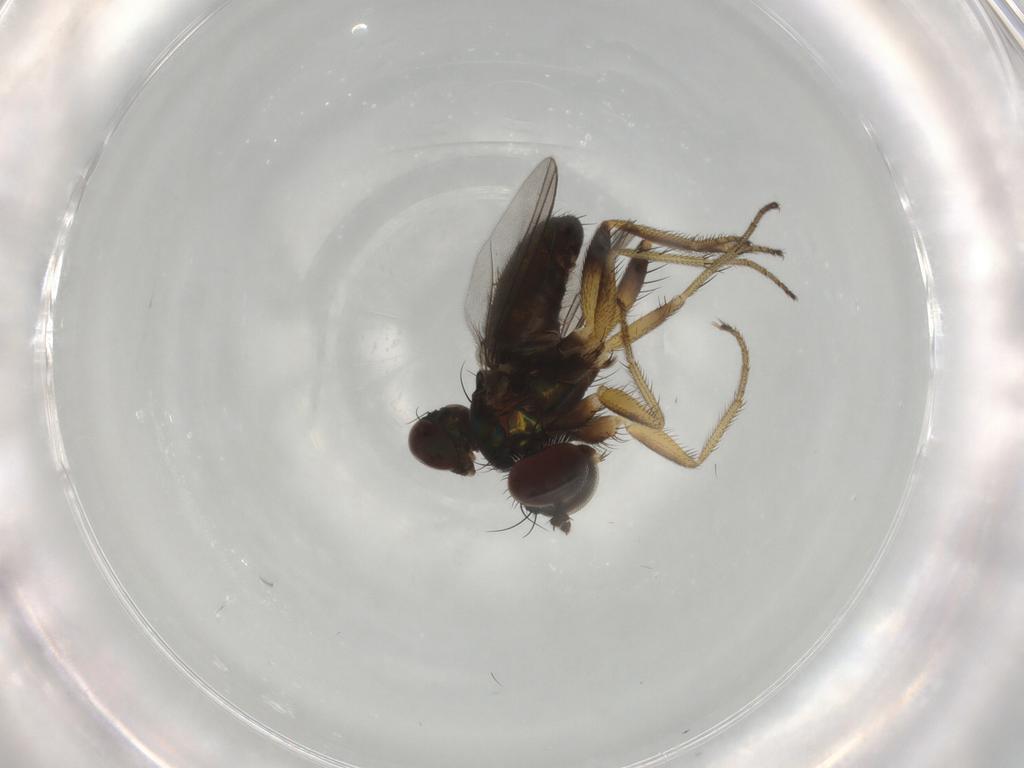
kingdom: Animalia
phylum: Arthropoda
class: Insecta
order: Diptera
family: Dolichopodidae
